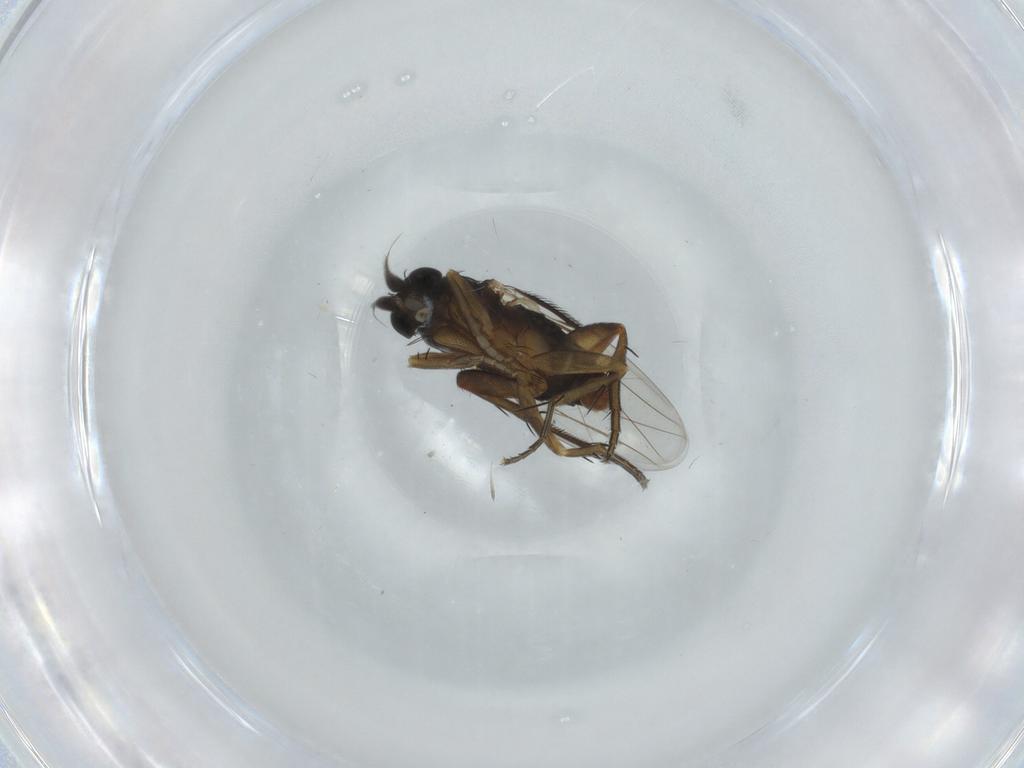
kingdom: Animalia
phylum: Arthropoda
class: Insecta
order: Diptera
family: Phoridae
